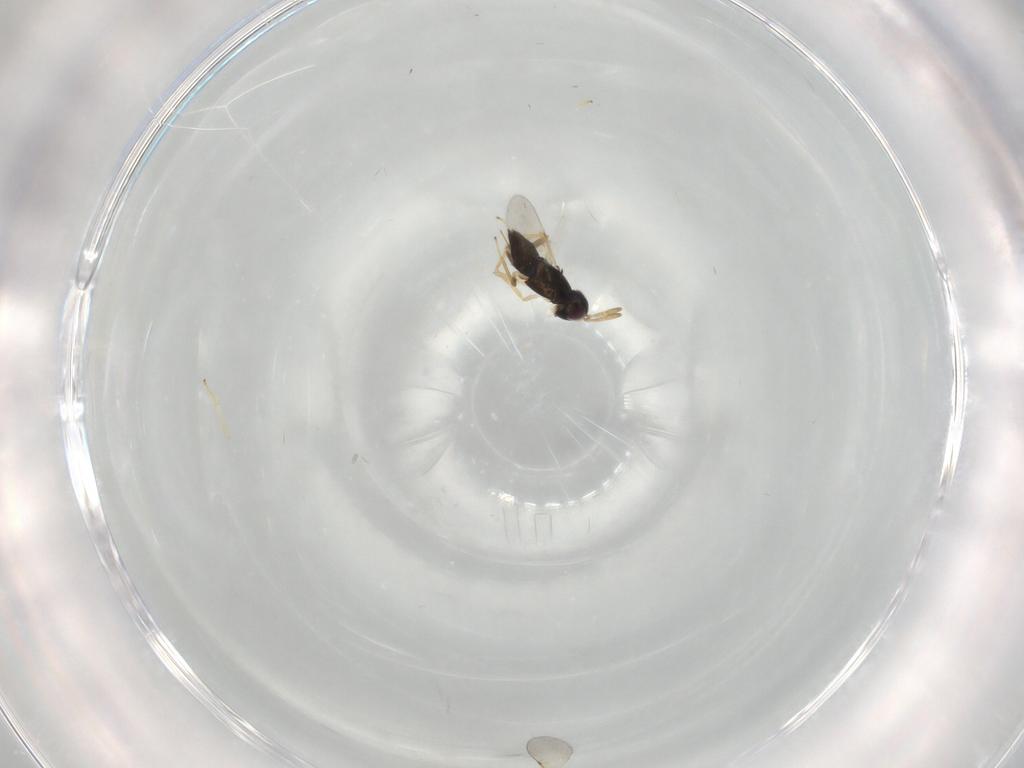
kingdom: Animalia
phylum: Arthropoda
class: Insecta
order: Hymenoptera
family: Encyrtidae
